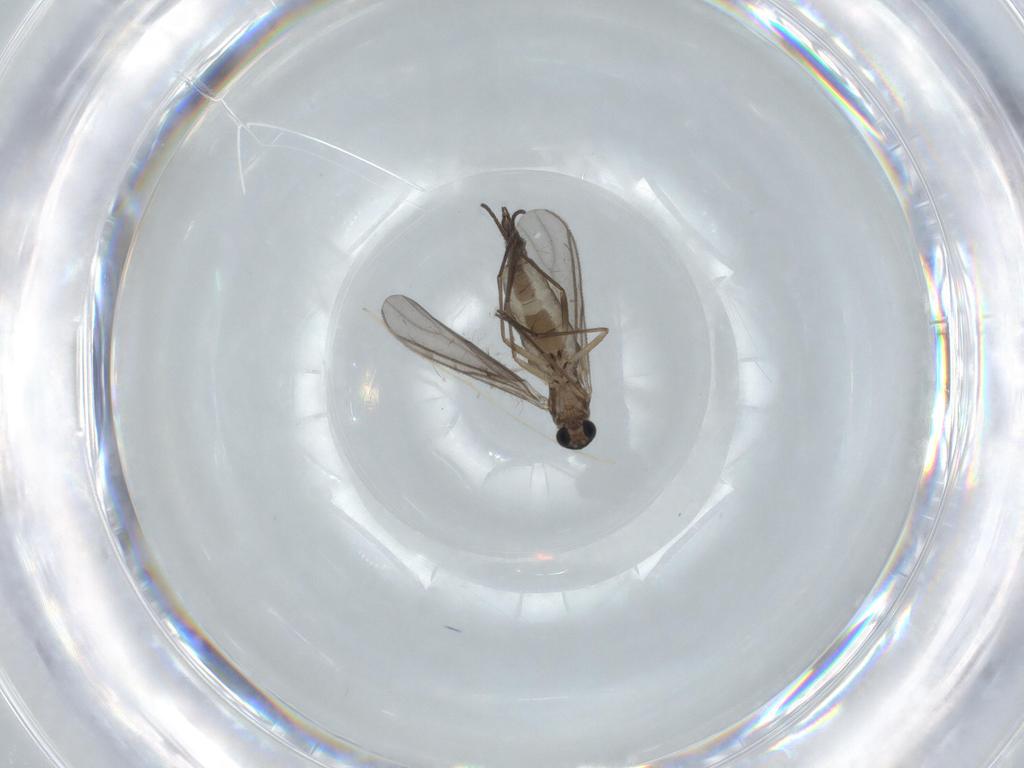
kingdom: Animalia
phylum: Arthropoda
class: Insecta
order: Diptera
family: Sciaridae
